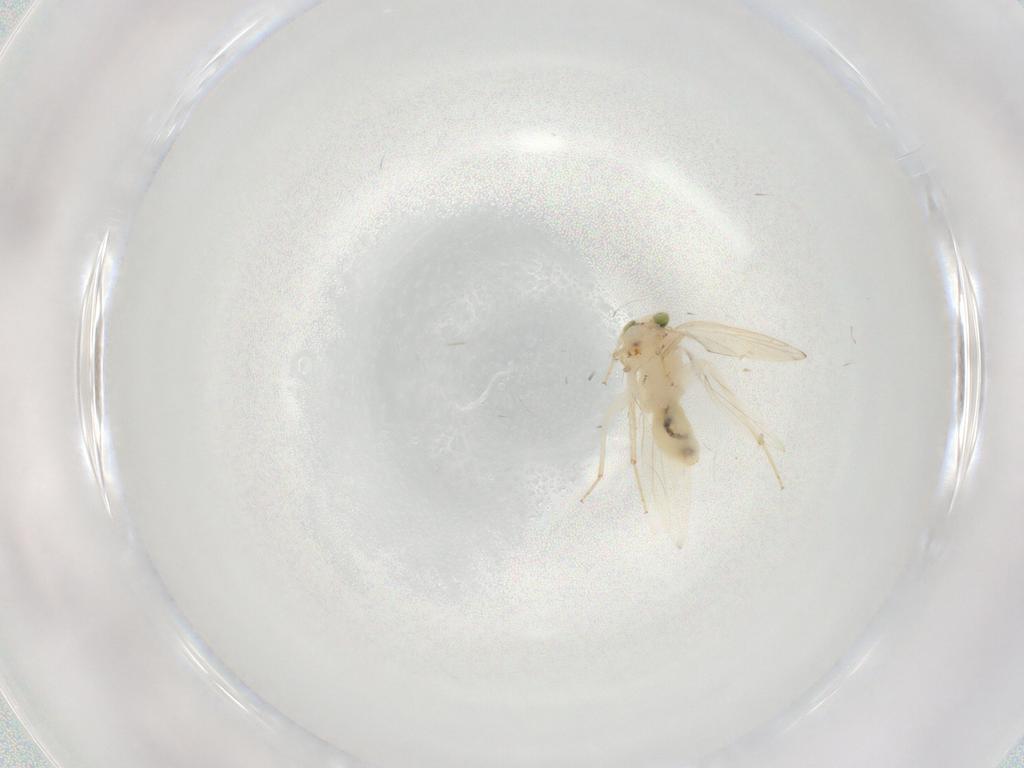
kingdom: Animalia
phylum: Arthropoda
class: Insecta
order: Psocodea
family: Lepidopsocidae
